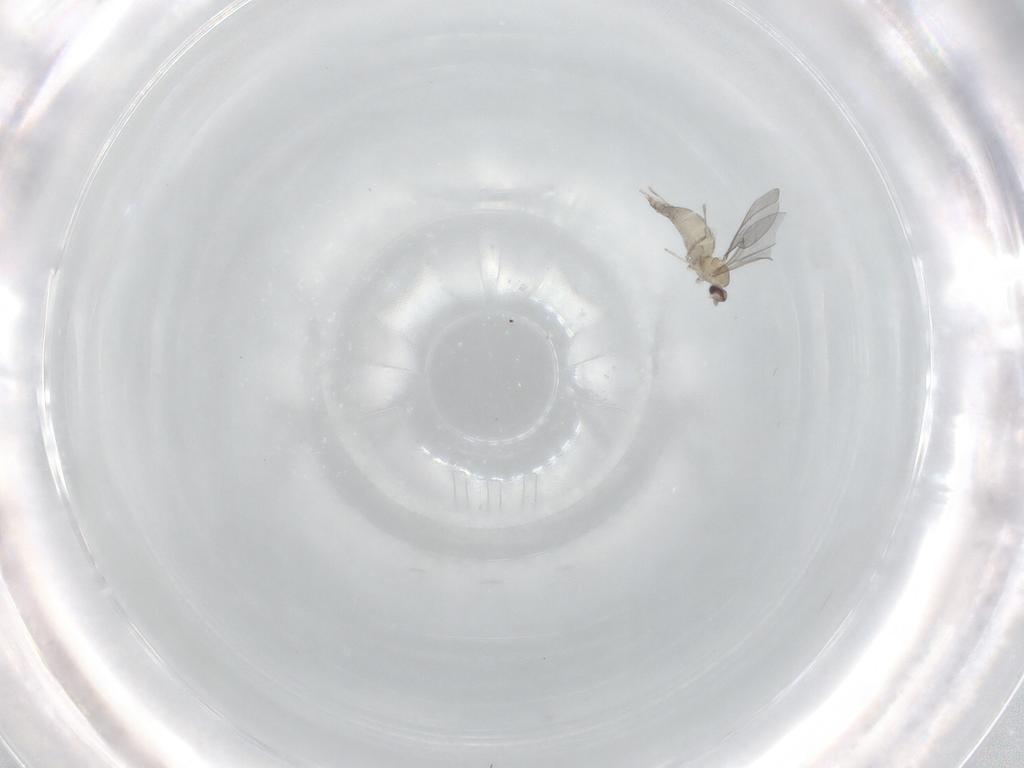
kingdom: Animalia
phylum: Arthropoda
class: Insecta
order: Diptera
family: Cecidomyiidae
